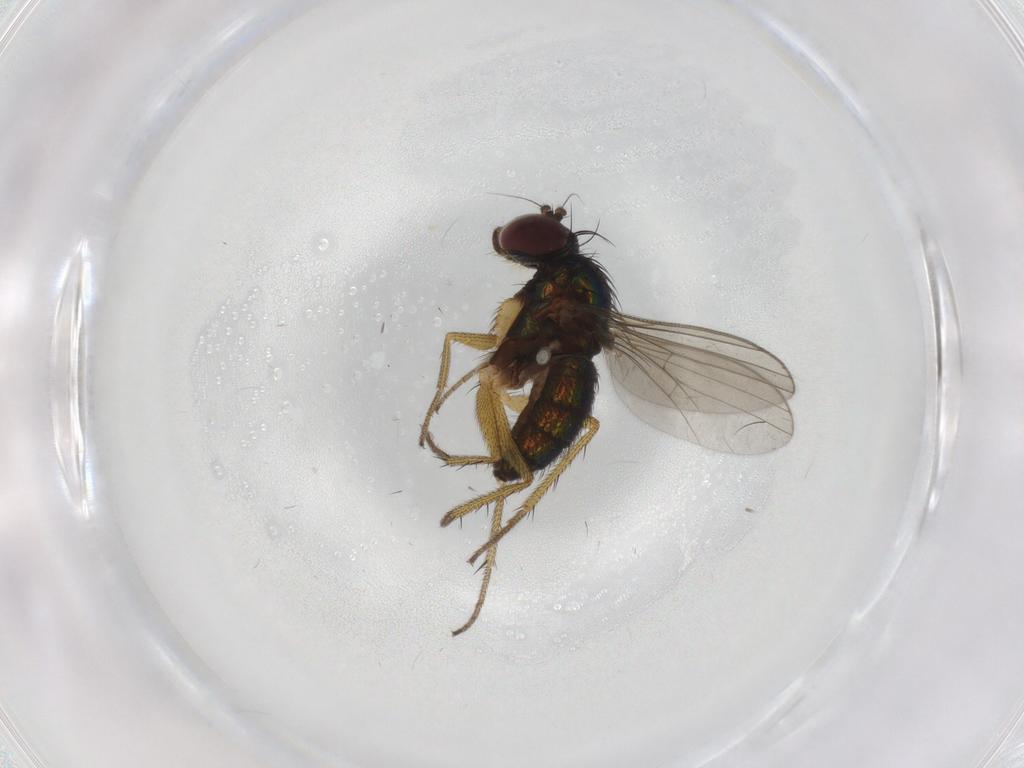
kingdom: Animalia
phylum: Arthropoda
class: Insecta
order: Diptera
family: Dolichopodidae
